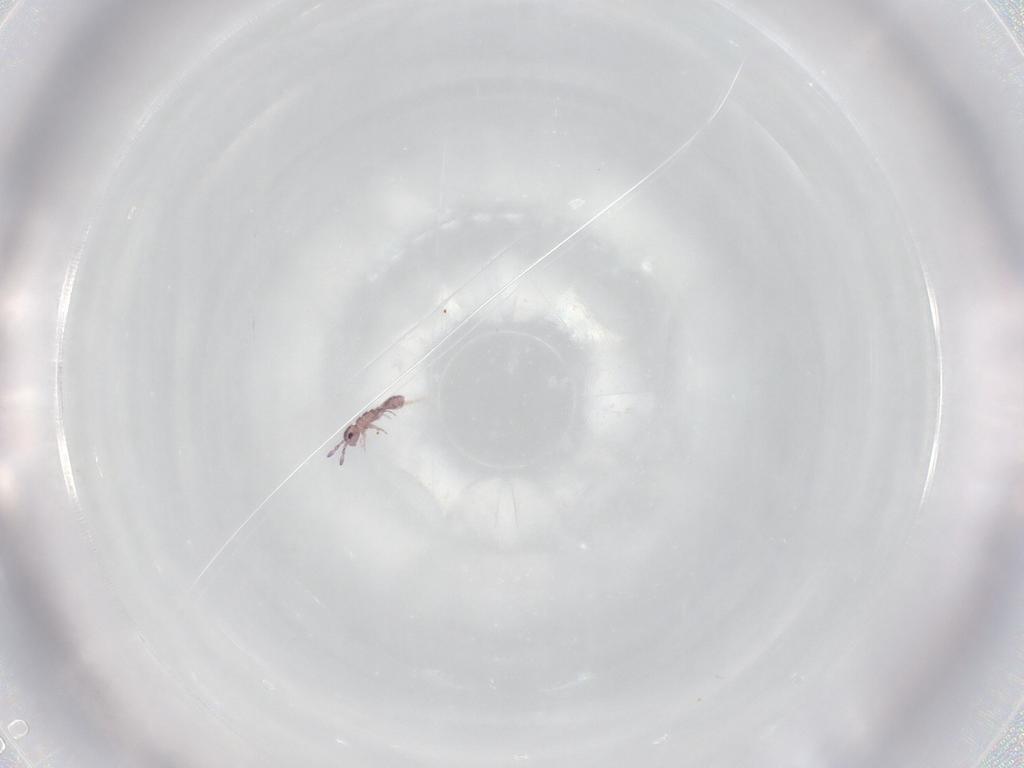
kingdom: Animalia
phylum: Arthropoda
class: Collembola
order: Entomobryomorpha
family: Isotomidae
